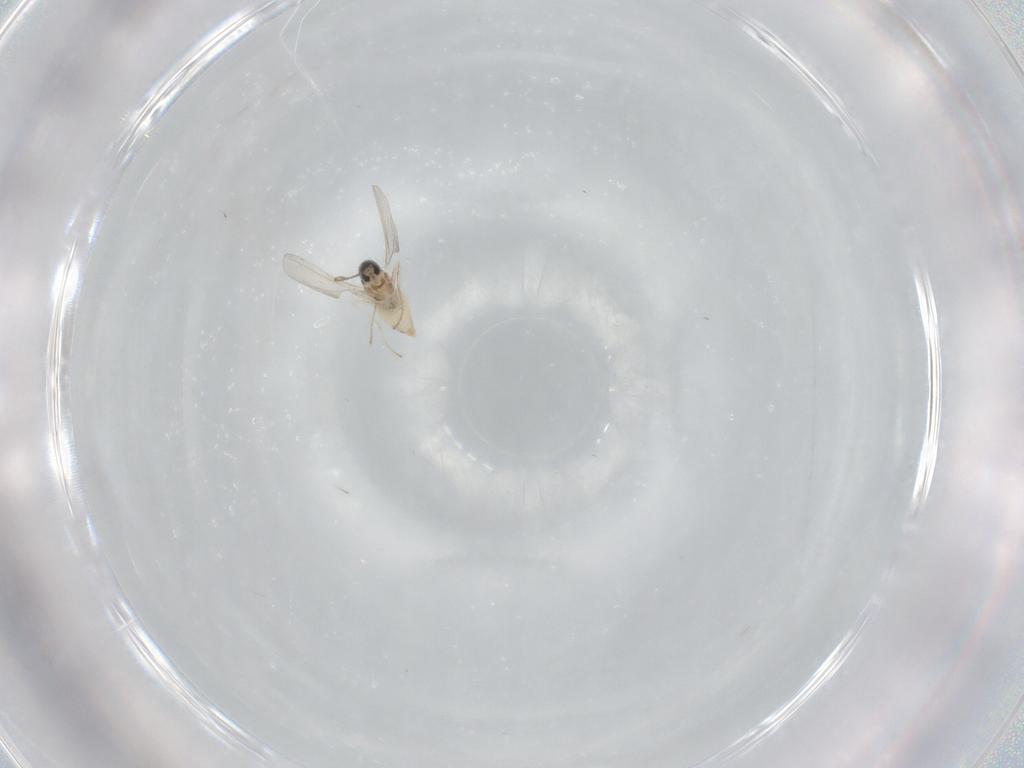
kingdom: Animalia
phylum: Arthropoda
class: Insecta
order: Diptera
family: Cecidomyiidae
